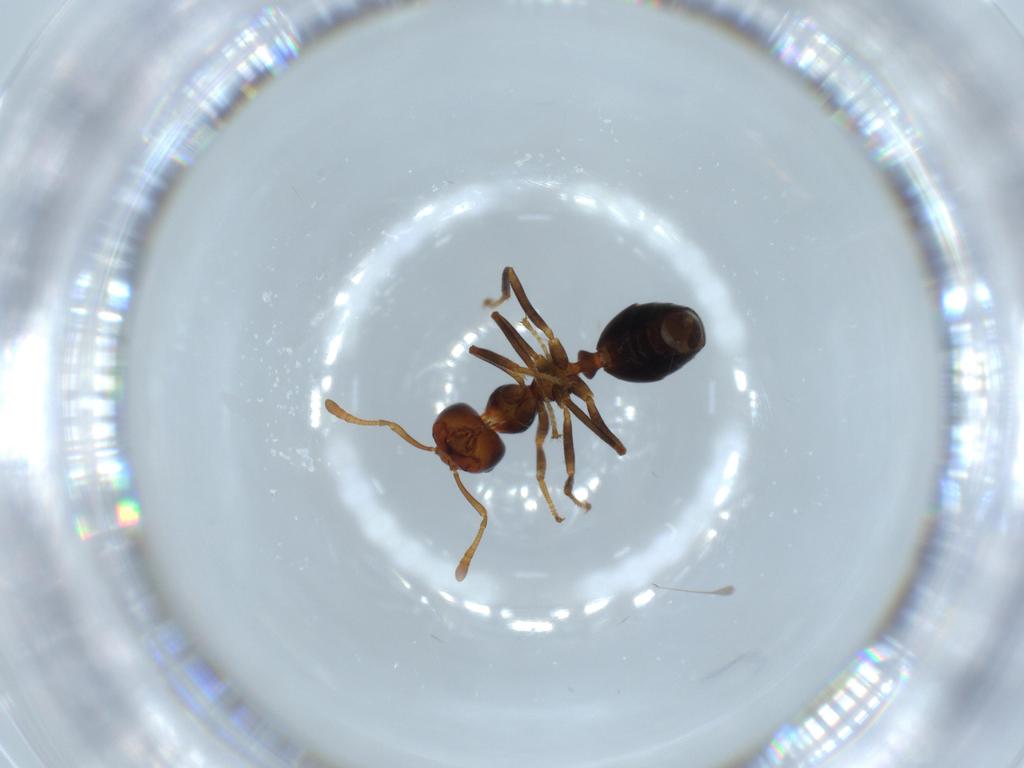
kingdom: Animalia
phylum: Arthropoda
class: Insecta
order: Hymenoptera
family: Formicidae
